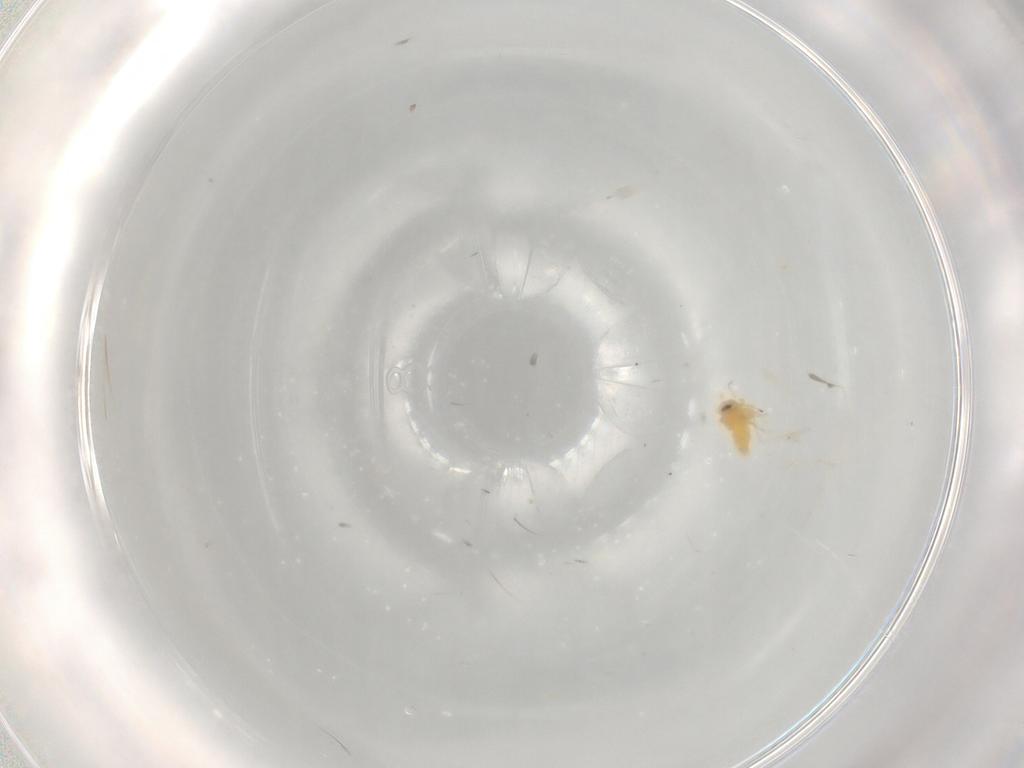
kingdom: Animalia
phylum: Arthropoda
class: Insecta
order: Hemiptera
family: Cicadellidae
